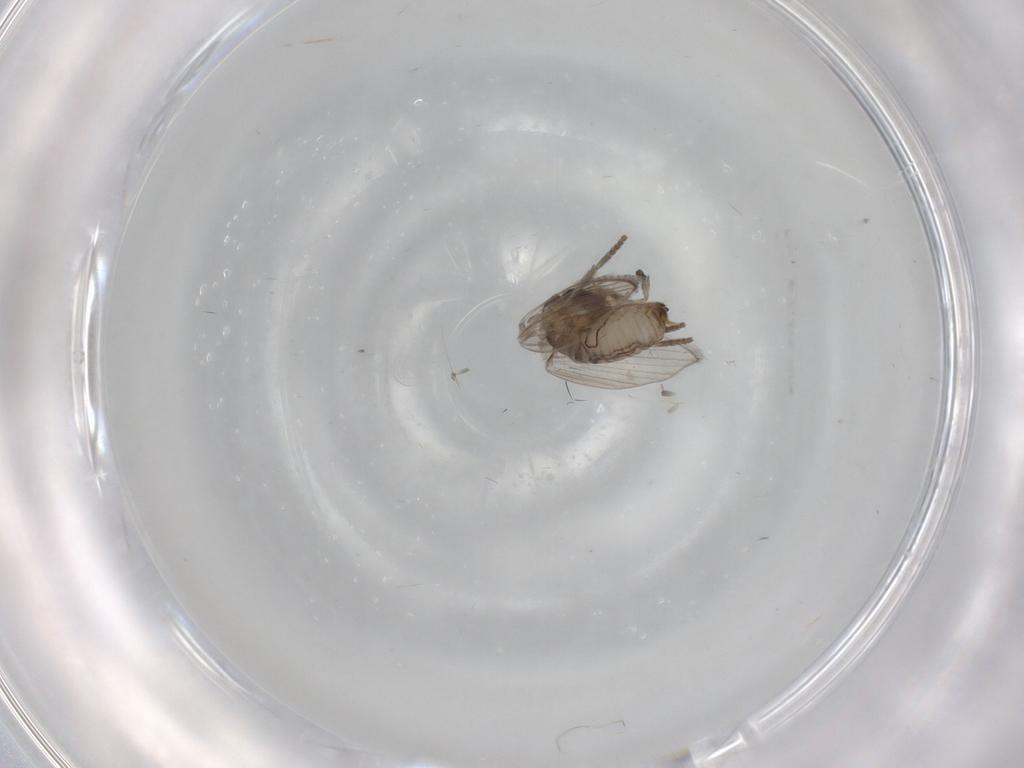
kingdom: Animalia
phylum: Arthropoda
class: Insecta
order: Diptera
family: Psychodidae
